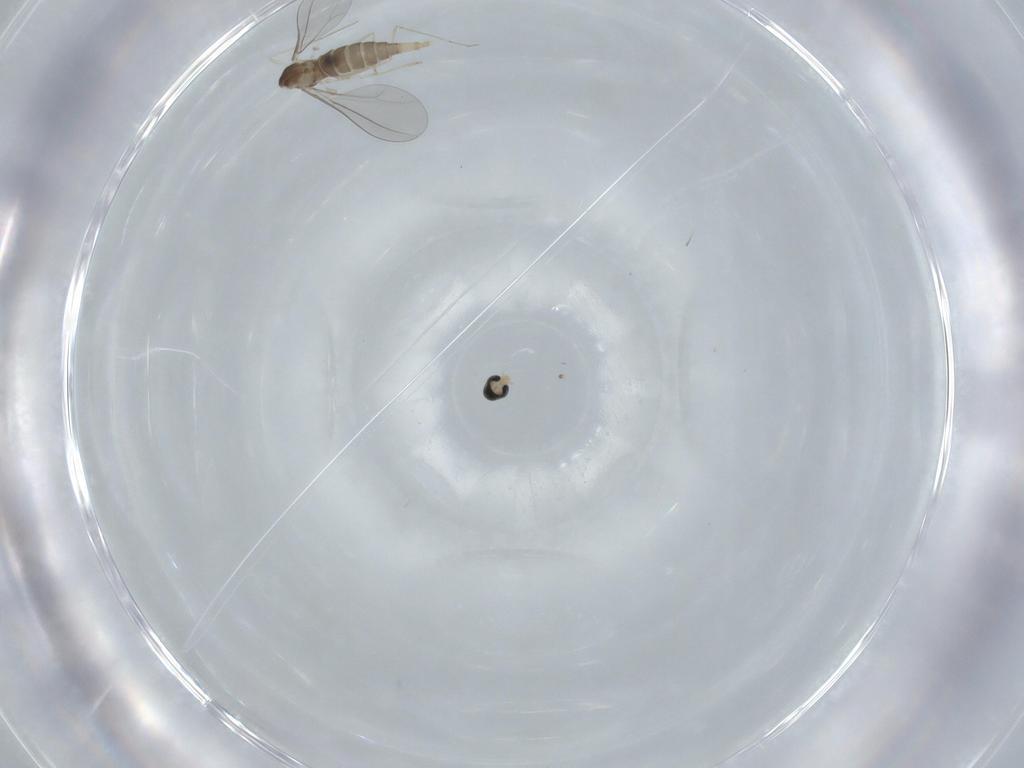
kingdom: Animalia
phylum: Arthropoda
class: Insecta
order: Diptera
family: Cecidomyiidae
